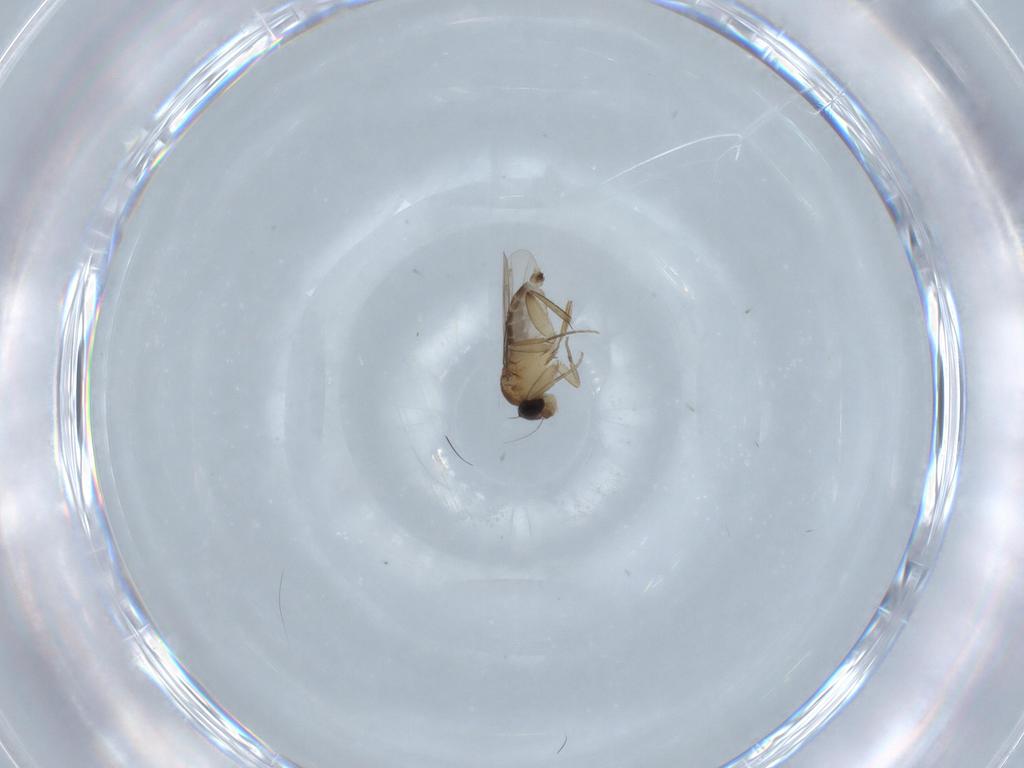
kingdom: Animalia
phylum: Arthropoda
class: Insecta
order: Diptera
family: Phoridae
